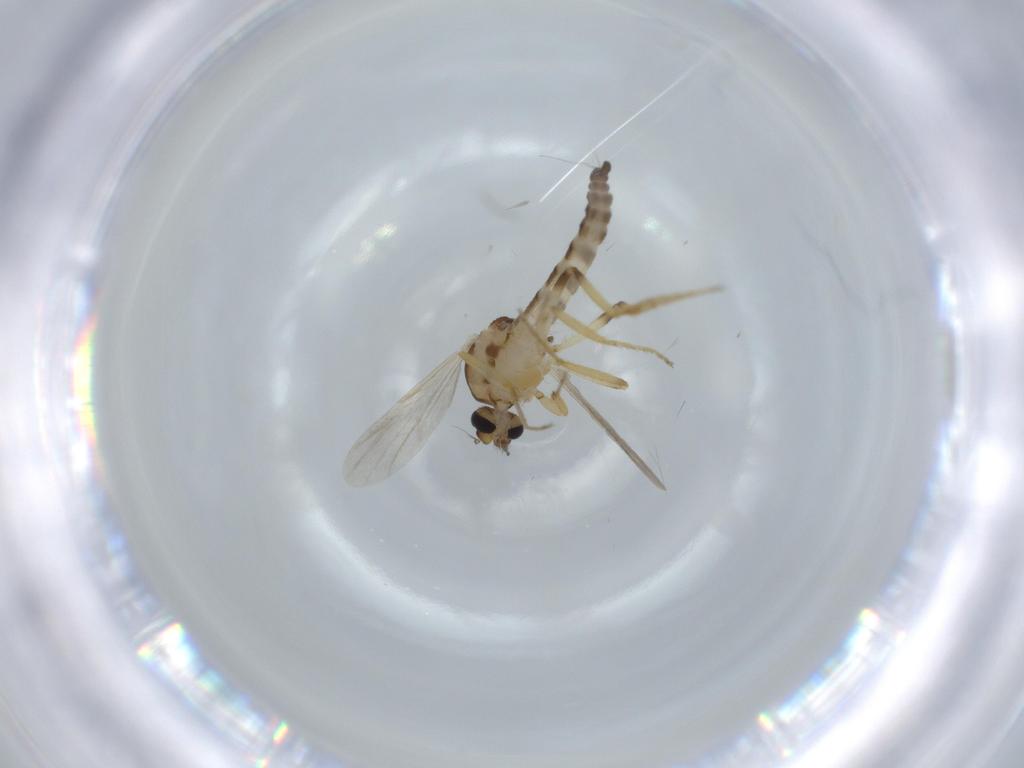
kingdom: Animalia
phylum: Arthropoda
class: Insecta
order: Diptera
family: Ceratopogonidae
